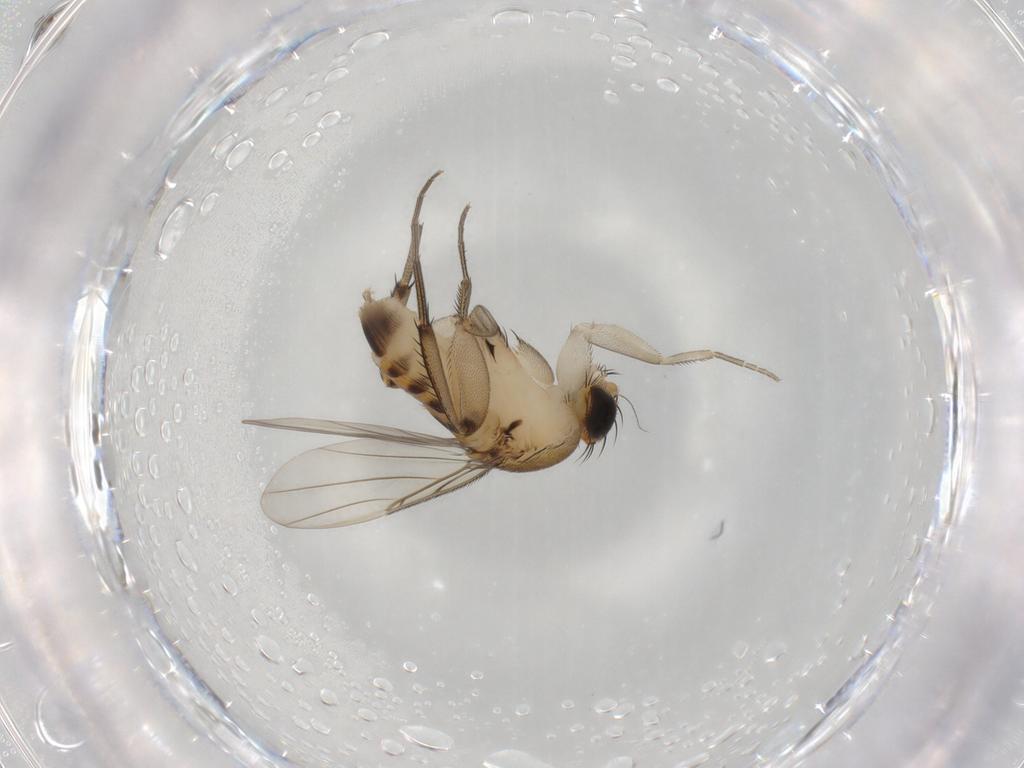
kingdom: Animalia
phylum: Arthropoda
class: Insecta
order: Diptera
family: Phoridae
